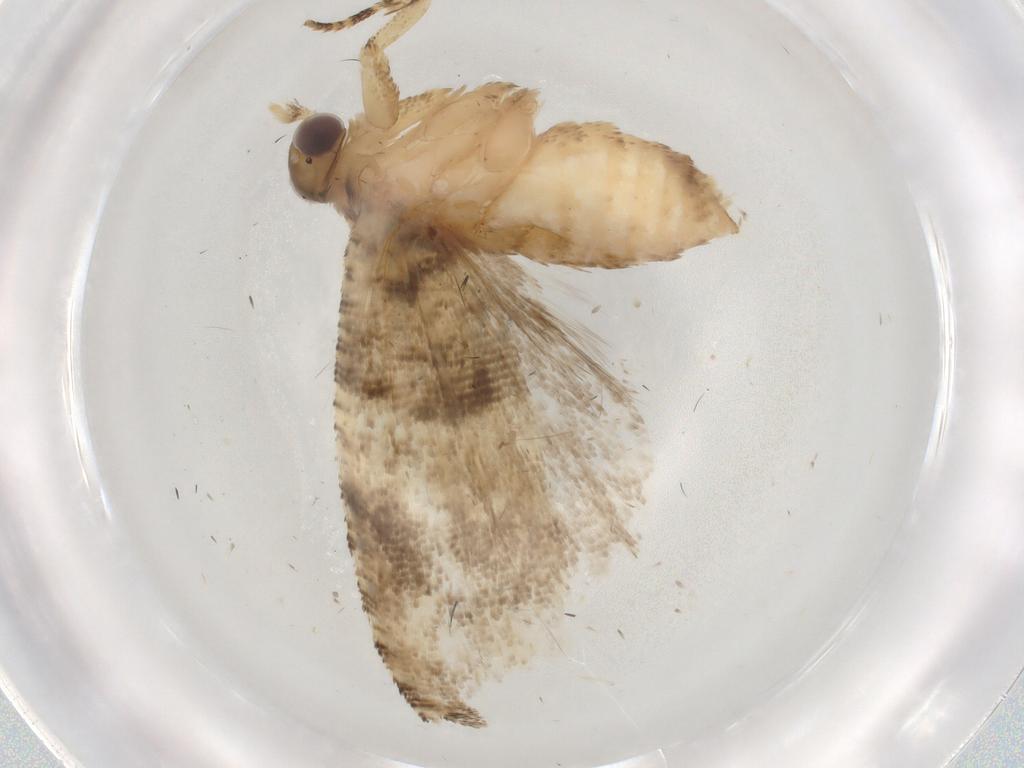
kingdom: Animalia
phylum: Arthropoda
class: Insecta
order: Lepidoptera
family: Tortricidae
